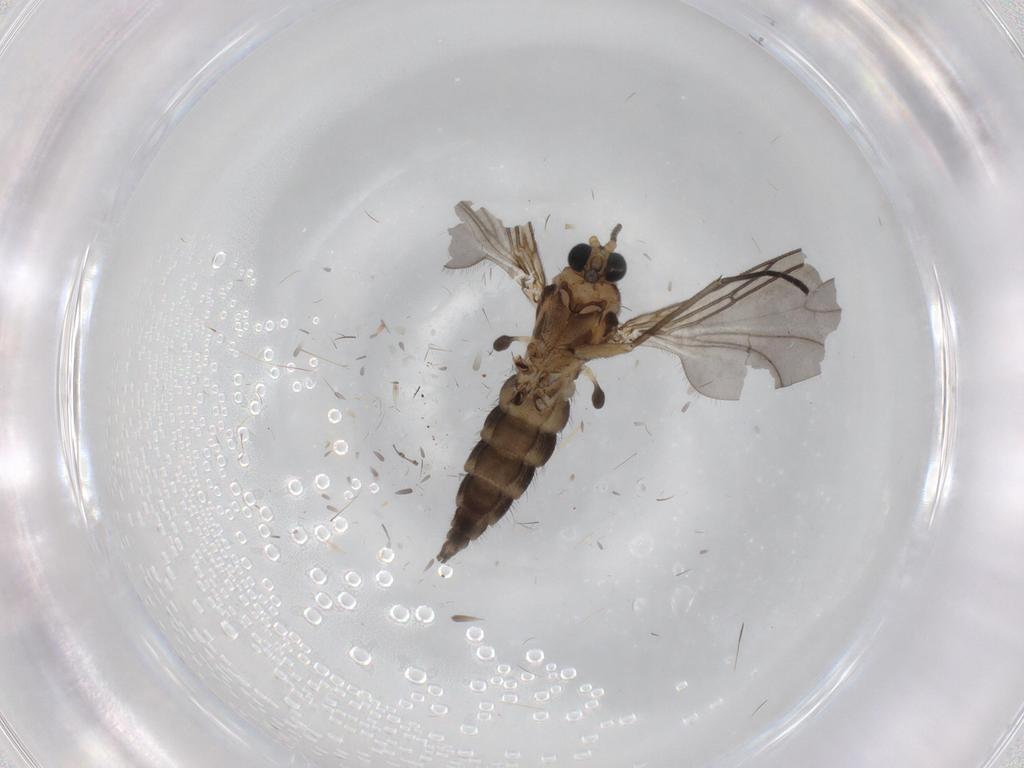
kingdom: Animalia
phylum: Arthropoda
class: Insecta
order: Diptera
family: Sciaridae
